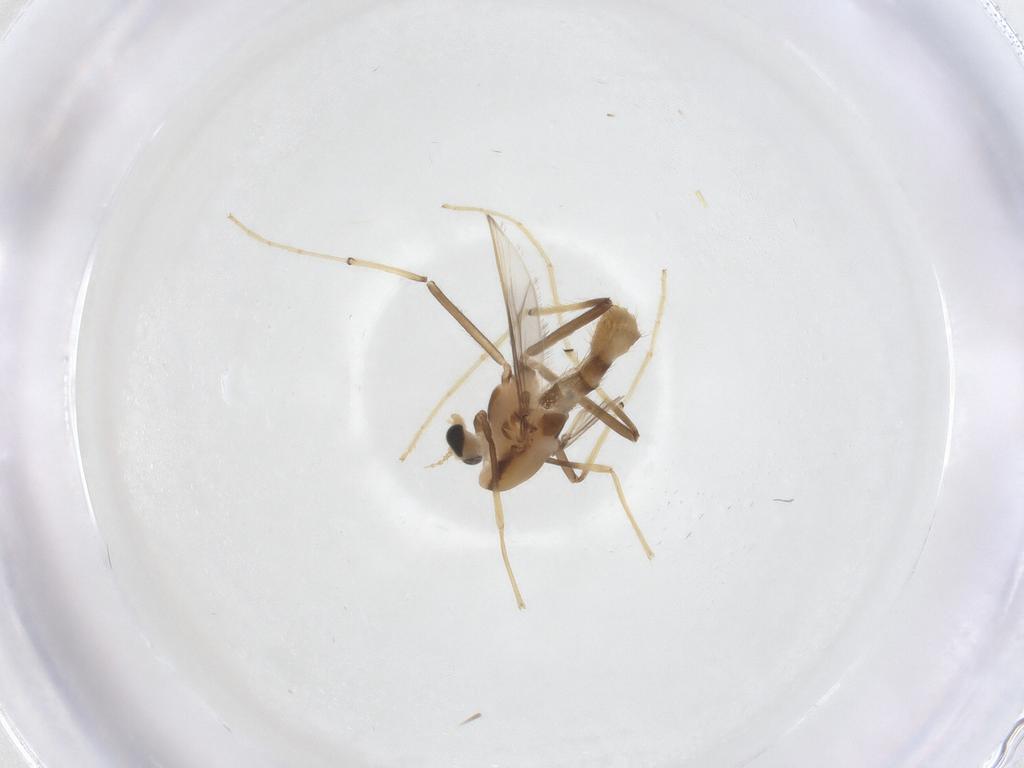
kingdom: Animalia
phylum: Arthropoda
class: Insecta
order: Diptera
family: Chironomidae
